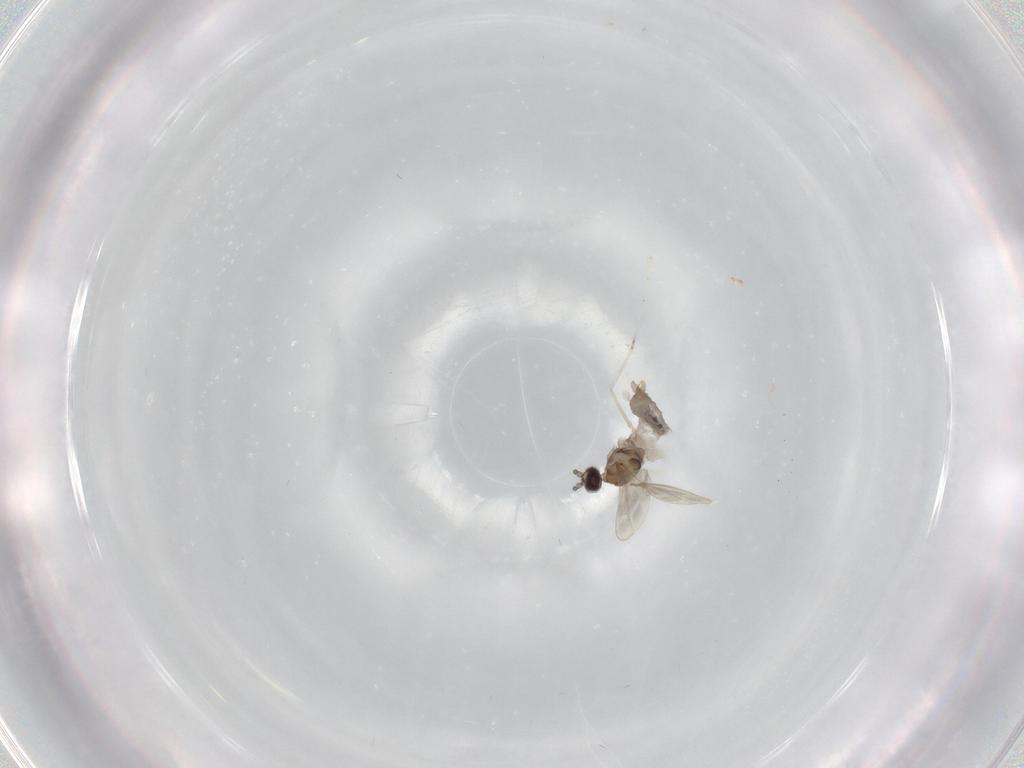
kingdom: Animalia
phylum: Arthropoda
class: Insecta
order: Diptera
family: Cecidomyiidae
